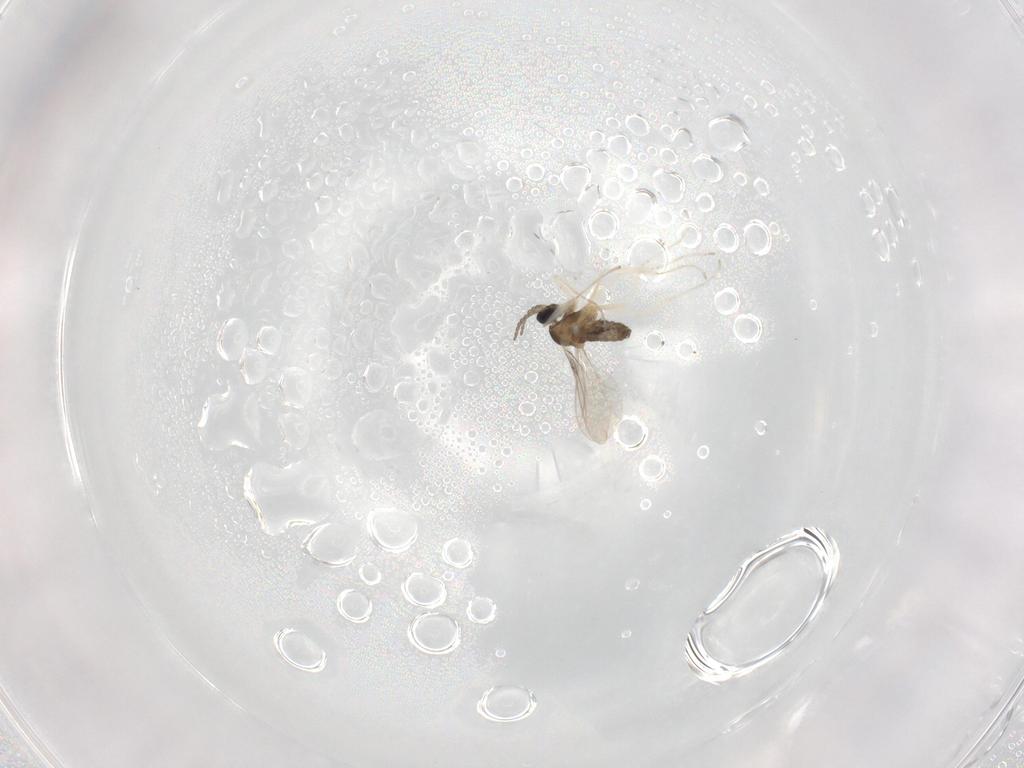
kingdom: Animalia
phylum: Arthropoda
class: Insecta
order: Diptera
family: Cecidomyiidae
